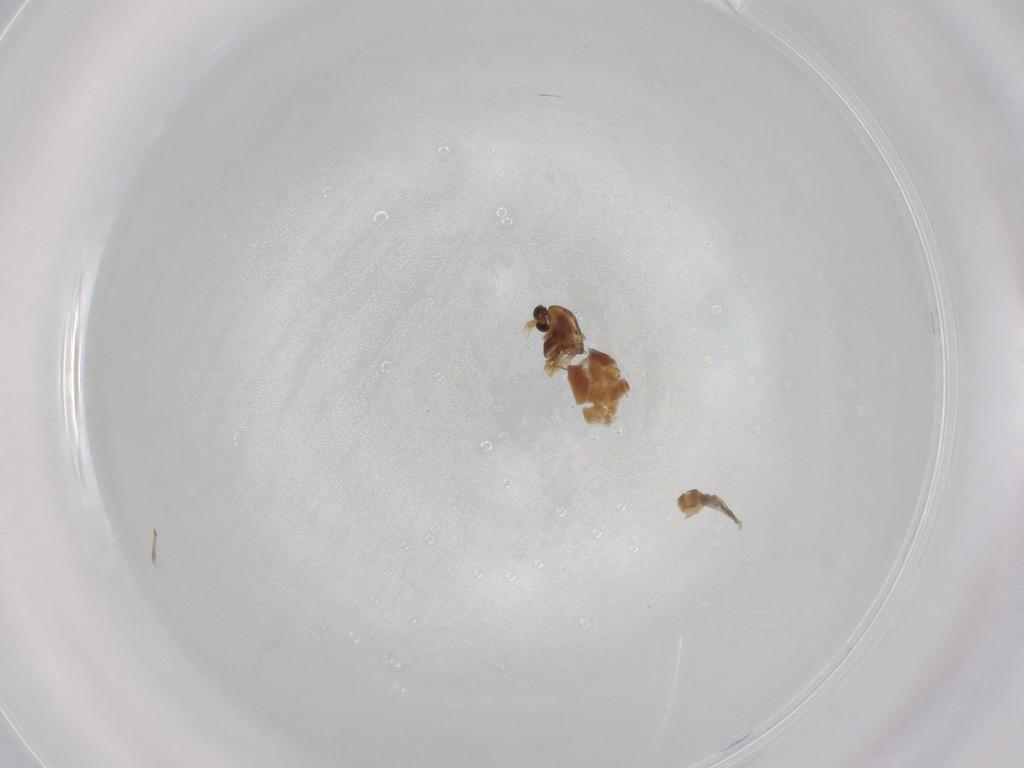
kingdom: Animalia
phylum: Arthropoda
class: Insecta
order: Diptera
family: Chironomidae
